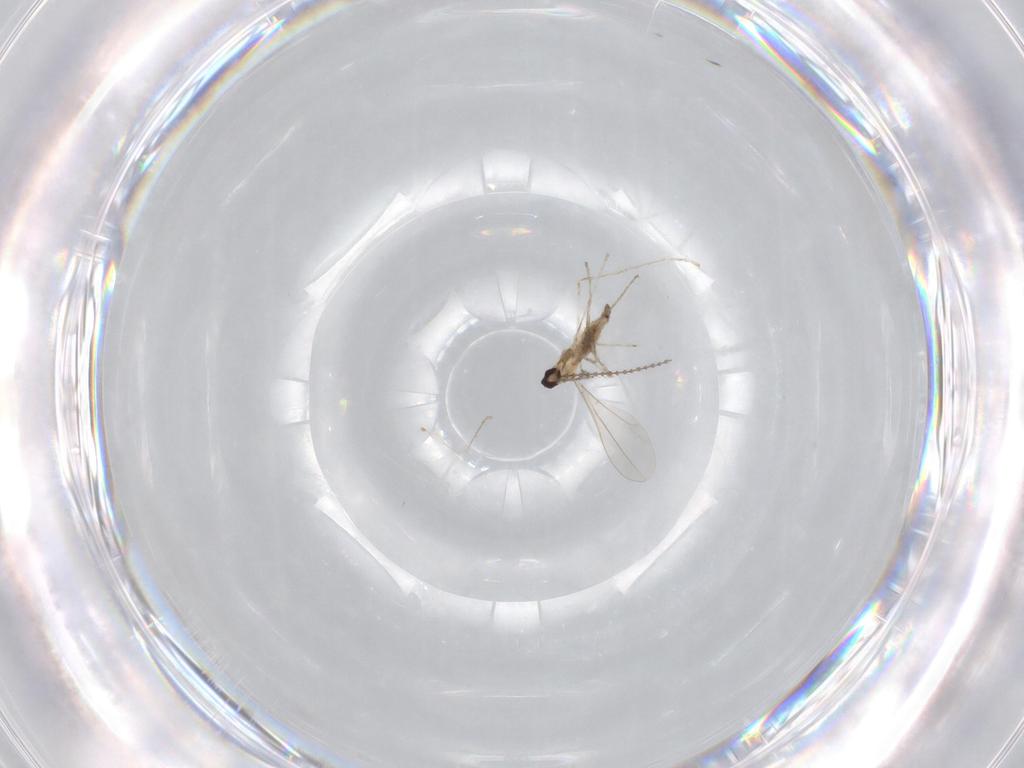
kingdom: Animalia
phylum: Arthropoda
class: Insecta
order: Diptera
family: Cecidomyiidae
